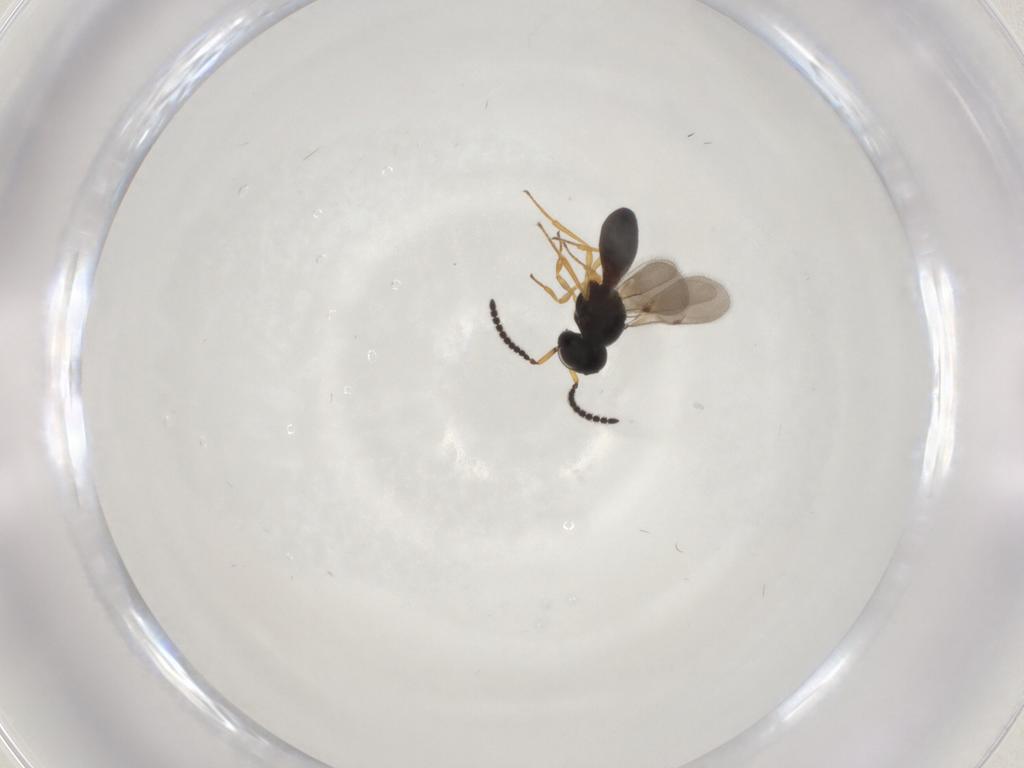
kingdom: Animalia
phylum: Arthropoda
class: Insecta
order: Hymenoptera
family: Scelionidae
